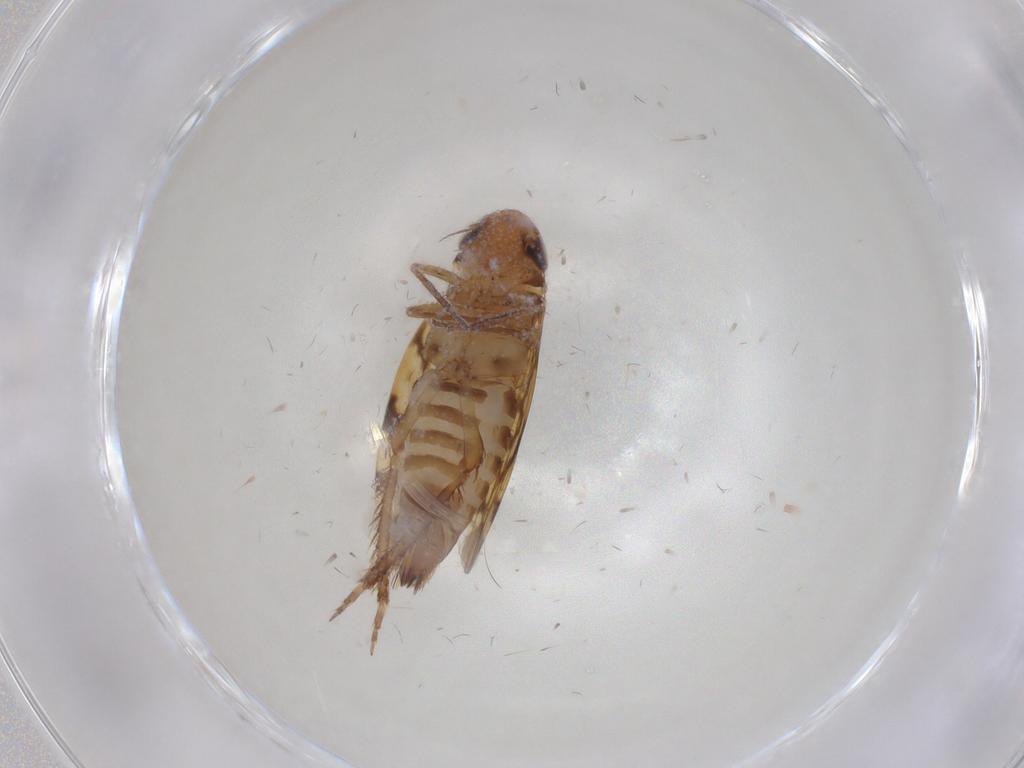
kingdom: Animalia
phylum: Arthropoda
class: Insecta
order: Hemiptera
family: Cicadellidae
